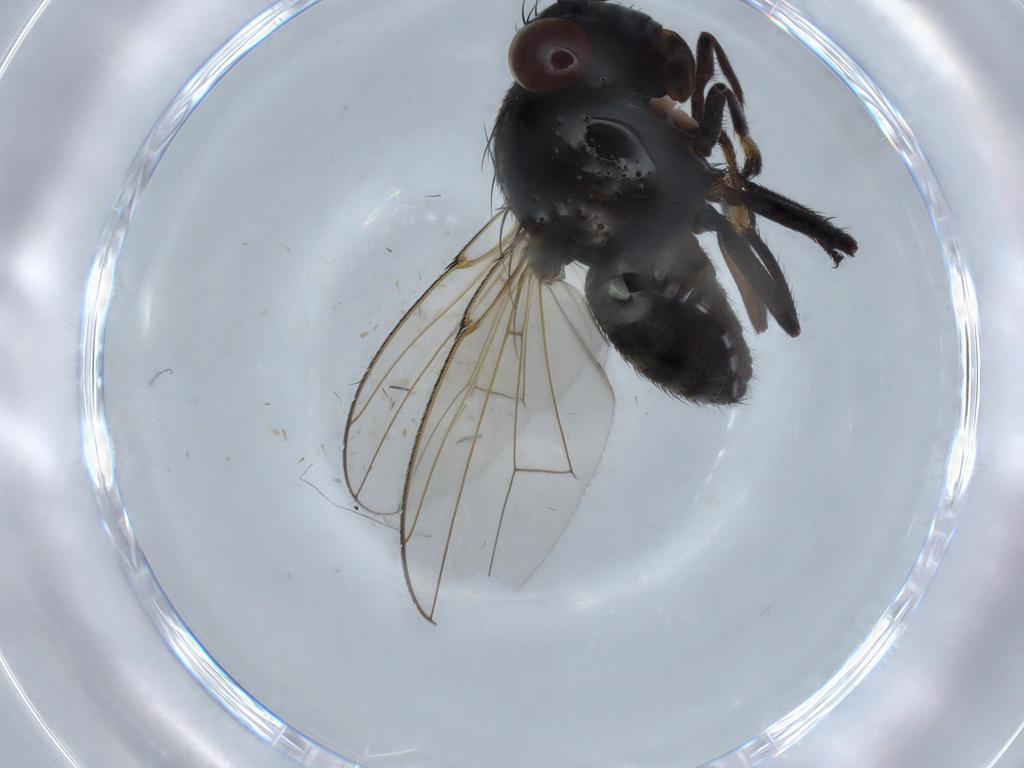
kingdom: Animalia
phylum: Arthropoda
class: Insecta
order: Diptera
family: Ephydridae
